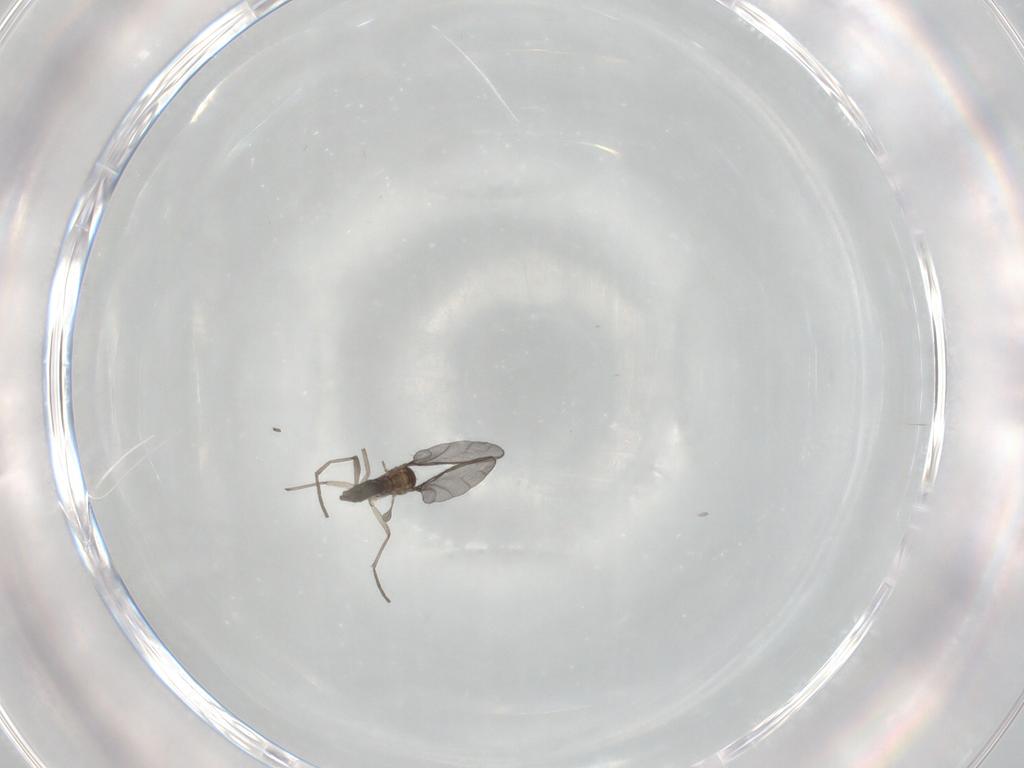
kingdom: Animalia
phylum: Arthropoda
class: Insecta
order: Diptera
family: Sciaridae
